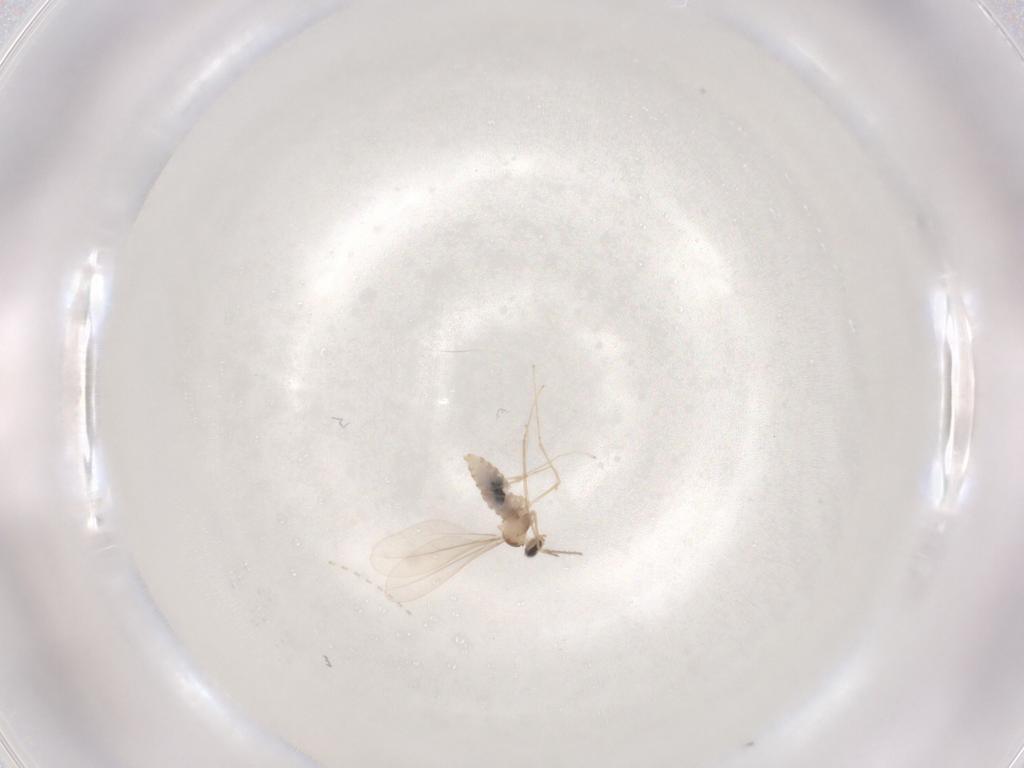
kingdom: Animalia
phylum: Arthropoda
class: Insecta
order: Diptera
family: Cecidomyiidae
